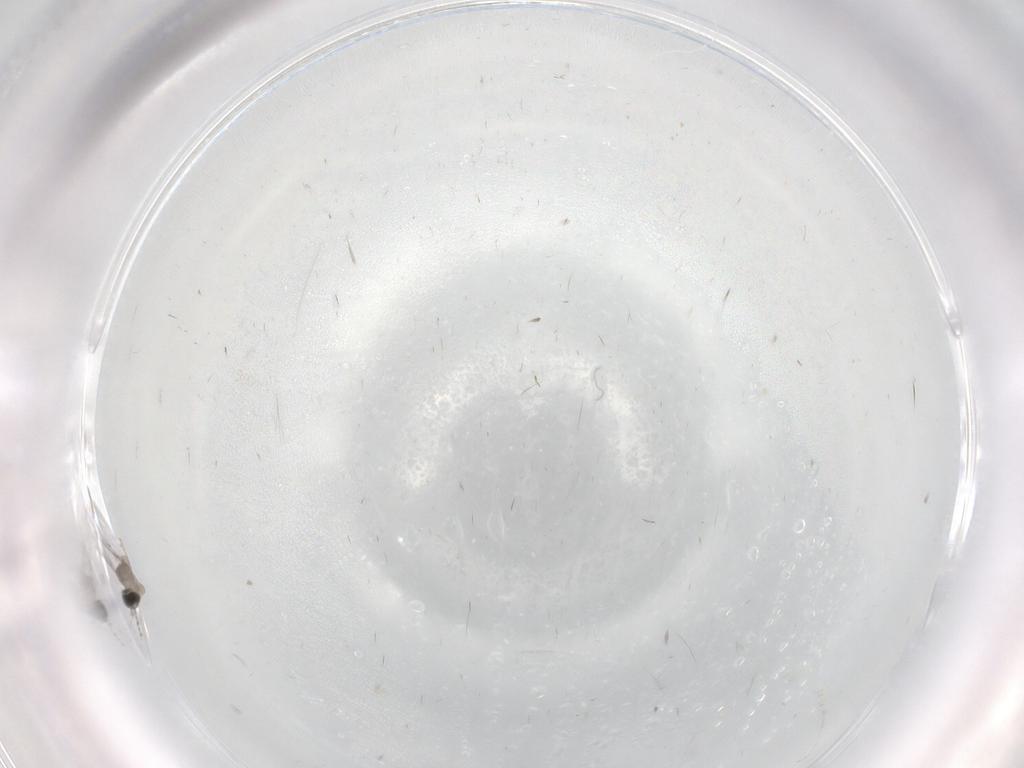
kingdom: Animalia
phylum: Arthropoda
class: Insecta
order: Diptera
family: Cecidomyiidae
